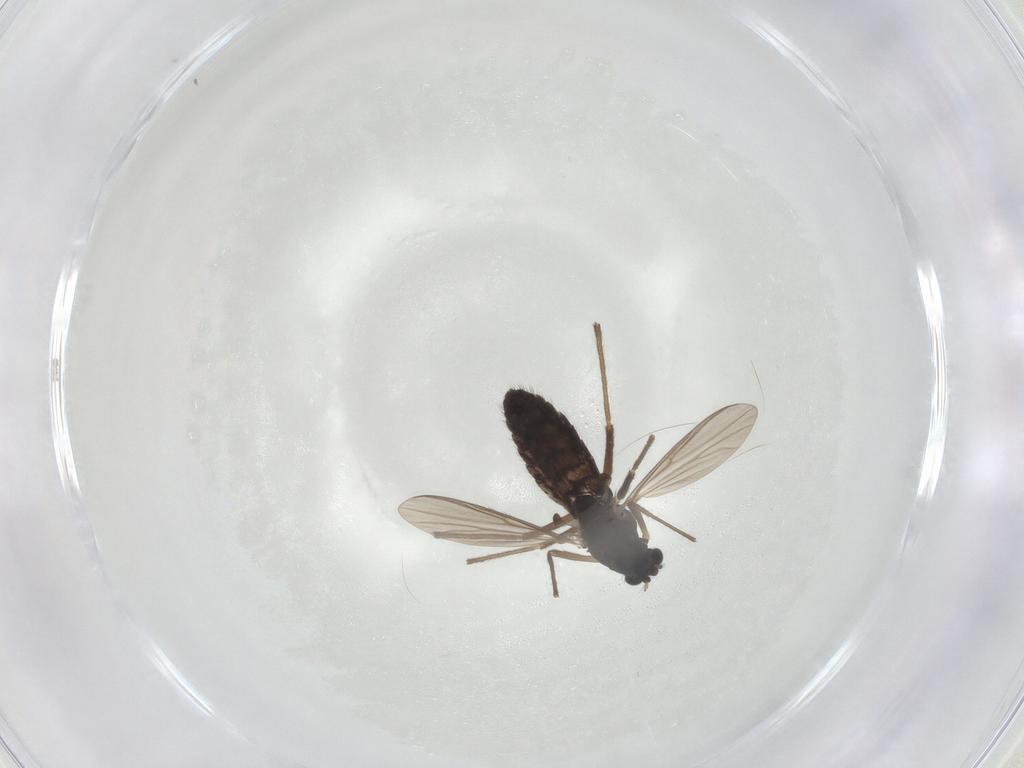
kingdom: Animalia
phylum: Arthropoda
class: Insecta
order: Diptera
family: Chironomidae
